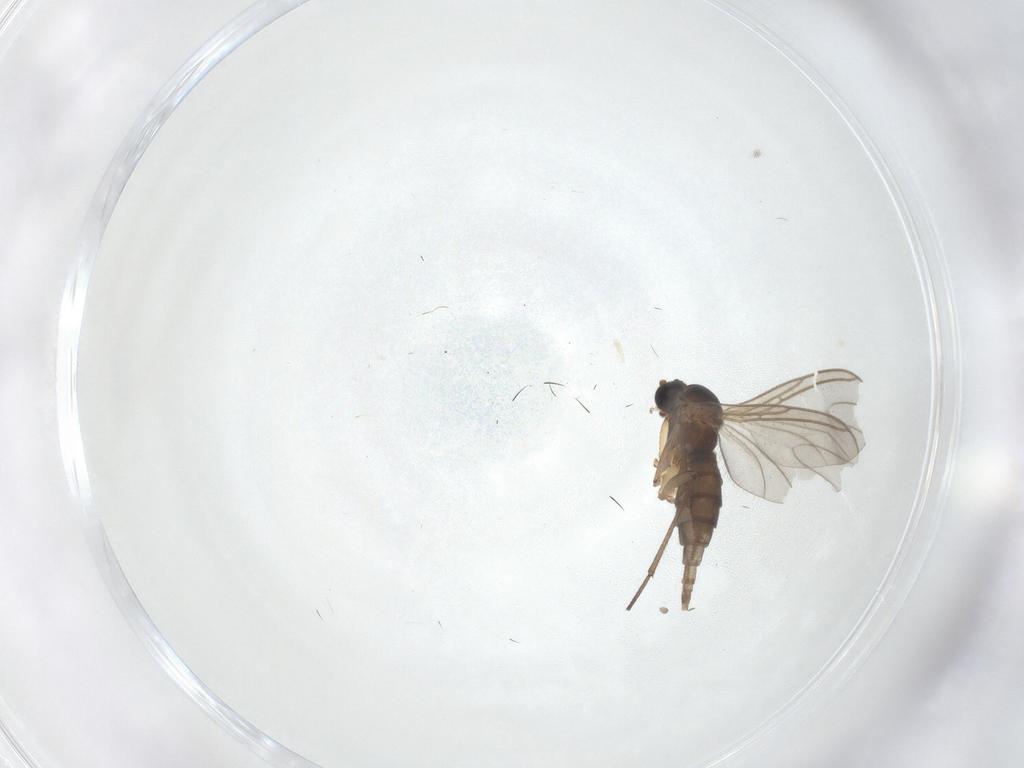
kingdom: Animalia
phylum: Arthropoda
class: Insecta
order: Diptera
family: Sciaridae
